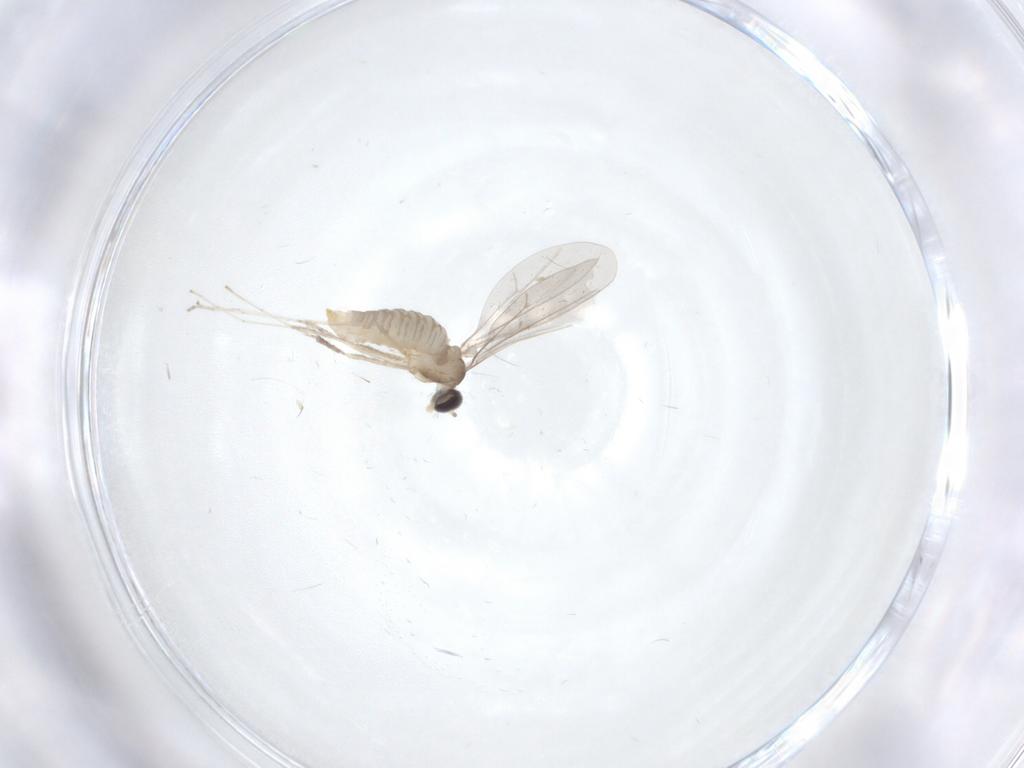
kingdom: Animalia
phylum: Arthropoda
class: Insecta
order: Diptera
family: Cecidomyiidae
